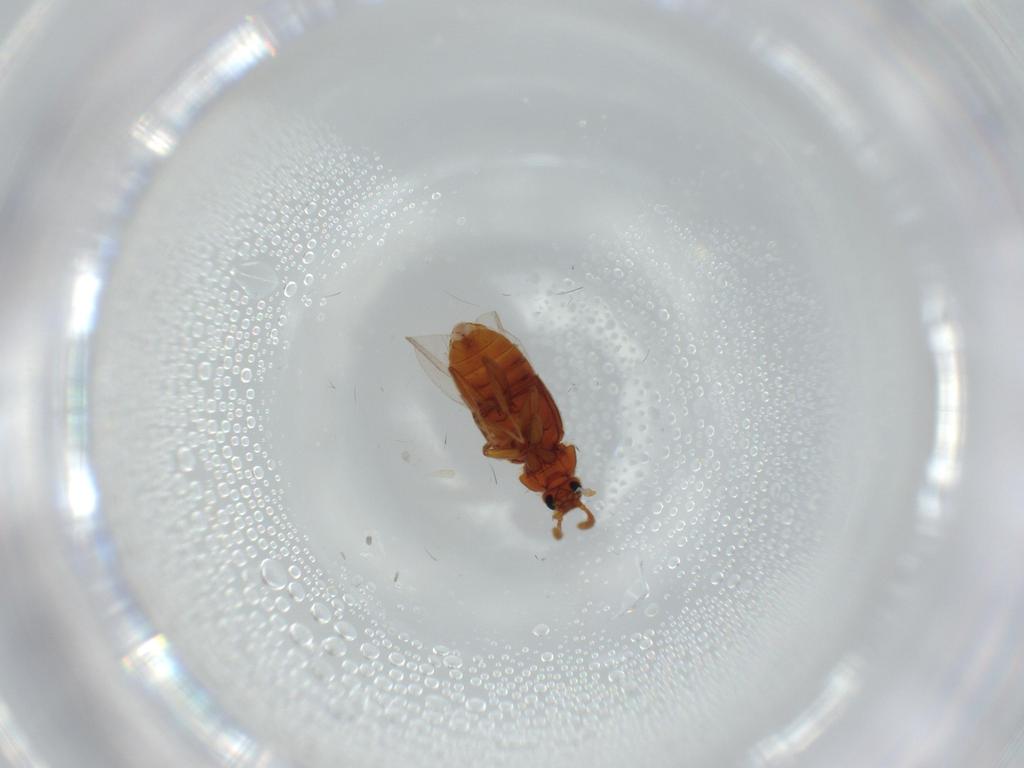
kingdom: Animalia
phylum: Arthropoda
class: Insecta
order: Coleoptera
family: Staphylinidae
